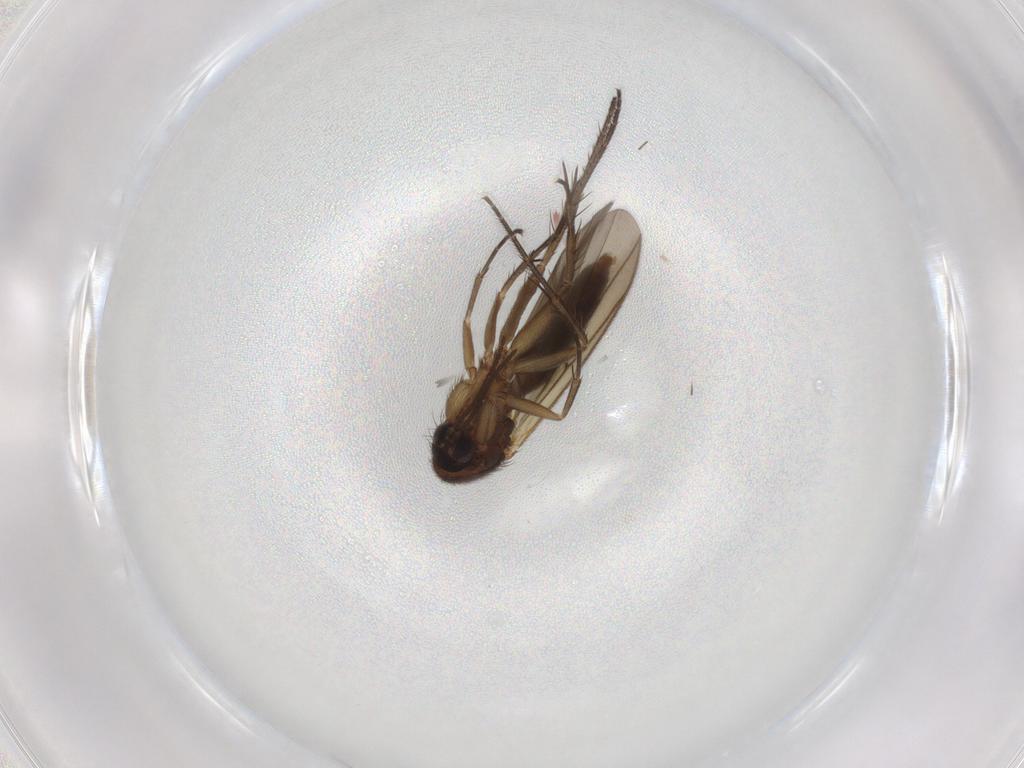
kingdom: Animalia
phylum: Arthropoda
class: Insecta
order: Diptera
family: Mycetophilidae
